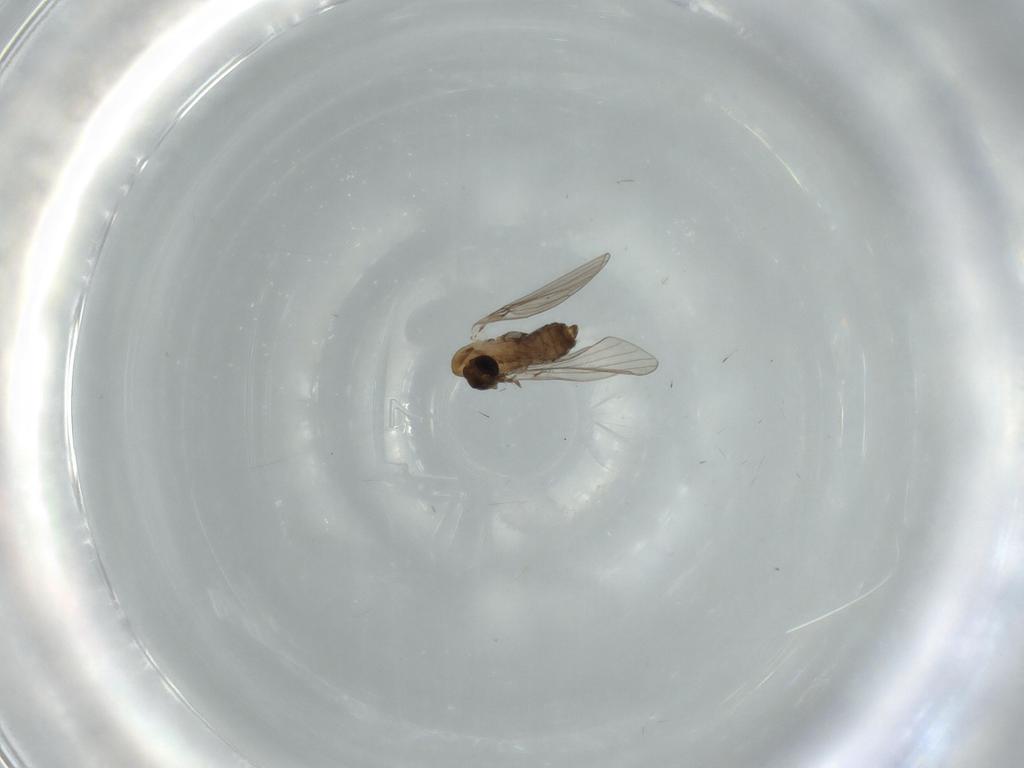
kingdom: Animalia
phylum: Arthropoda
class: Insecta
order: Diptera
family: Psychodidae
